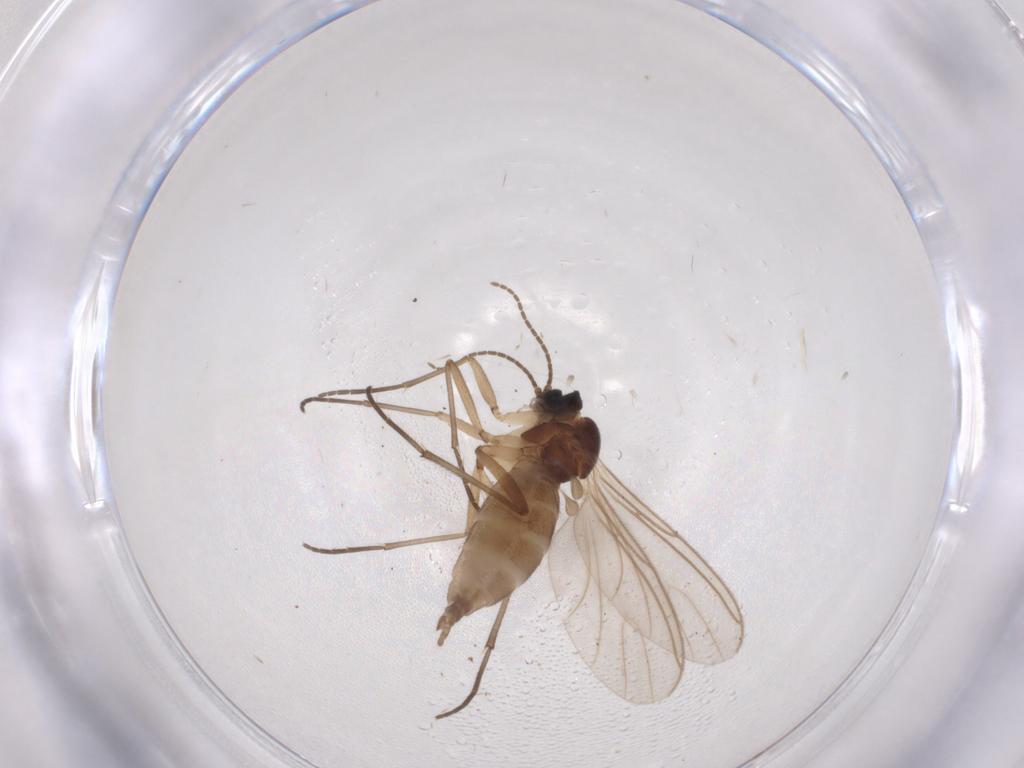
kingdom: Animalia
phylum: Arthropoda
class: Insecta
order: Diptera
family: Sciaridae
